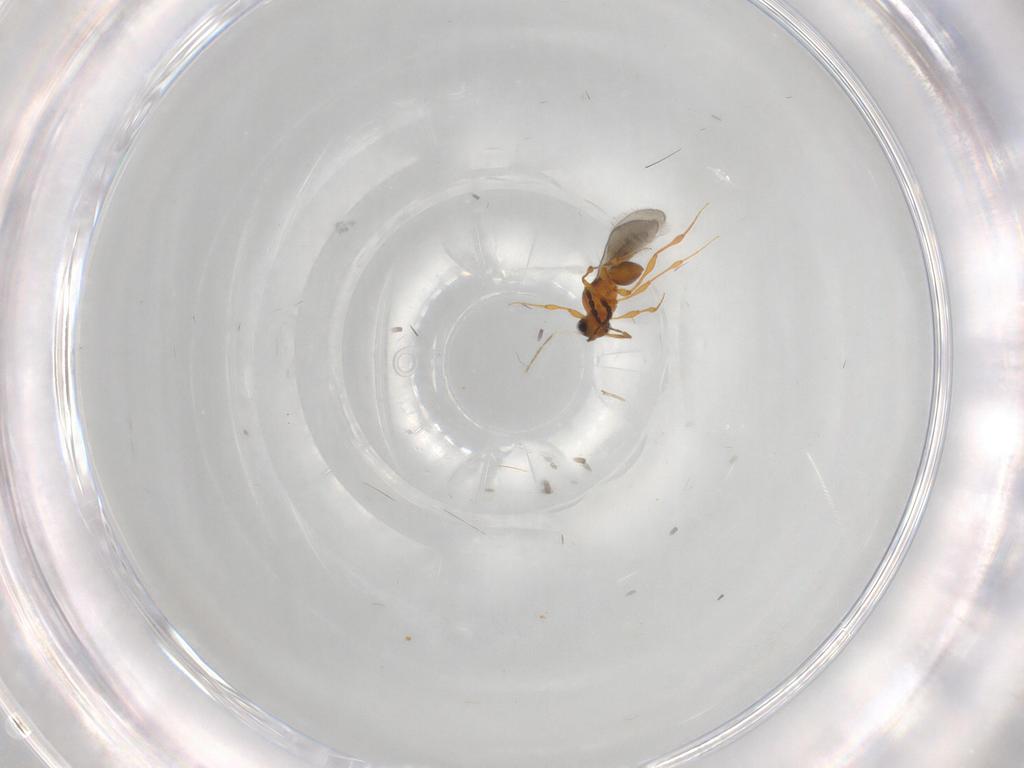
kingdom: Animalia
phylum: Arthropoda
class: Insecta
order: Hymenoptera
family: Platygastridae
